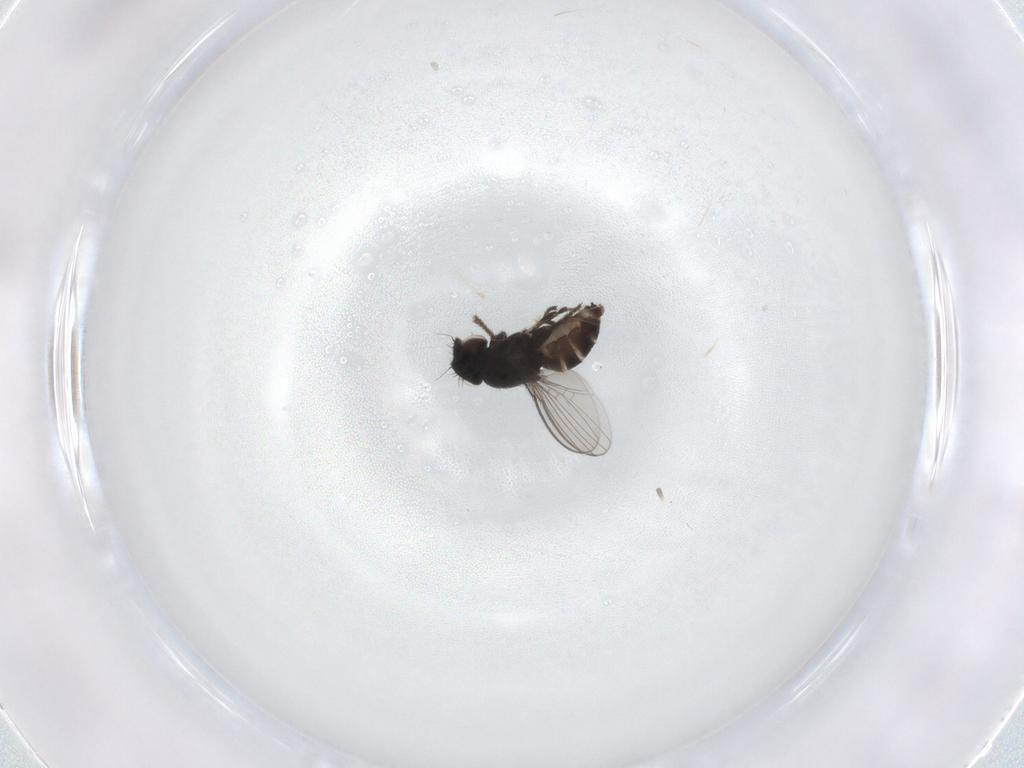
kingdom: Animalia
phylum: Arthropoda
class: Insecta
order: Diptera
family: Milichiidae
